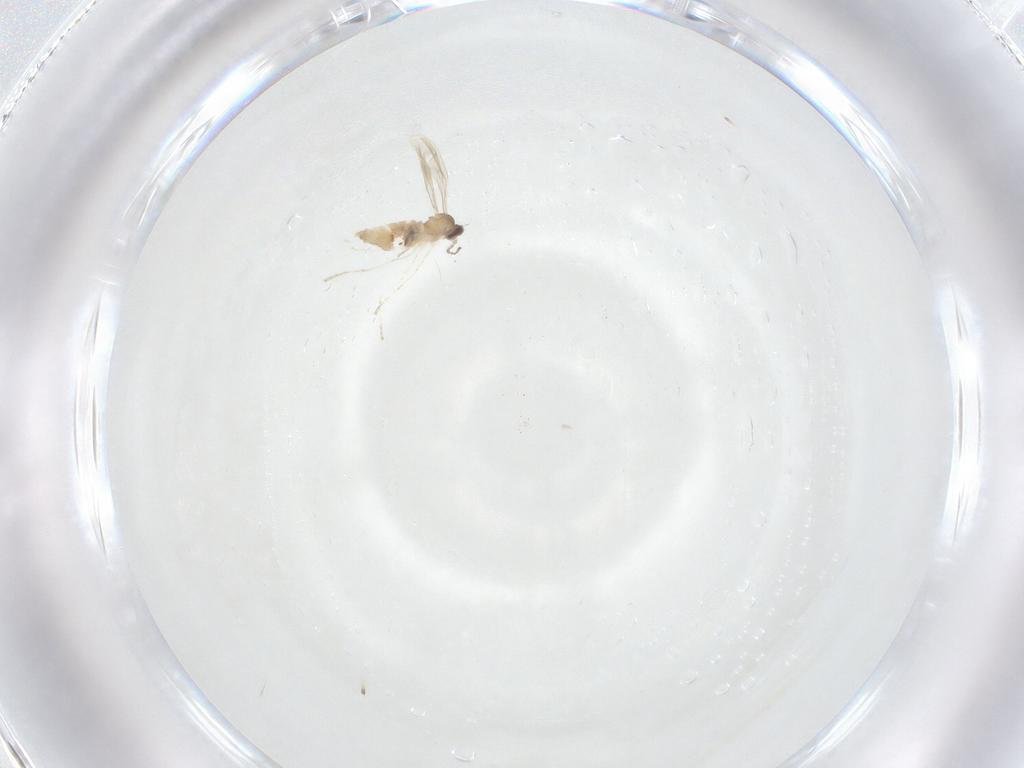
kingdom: Animalia
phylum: Arthropoda
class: Insecta
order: Diptera
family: Cecidomyiidae
